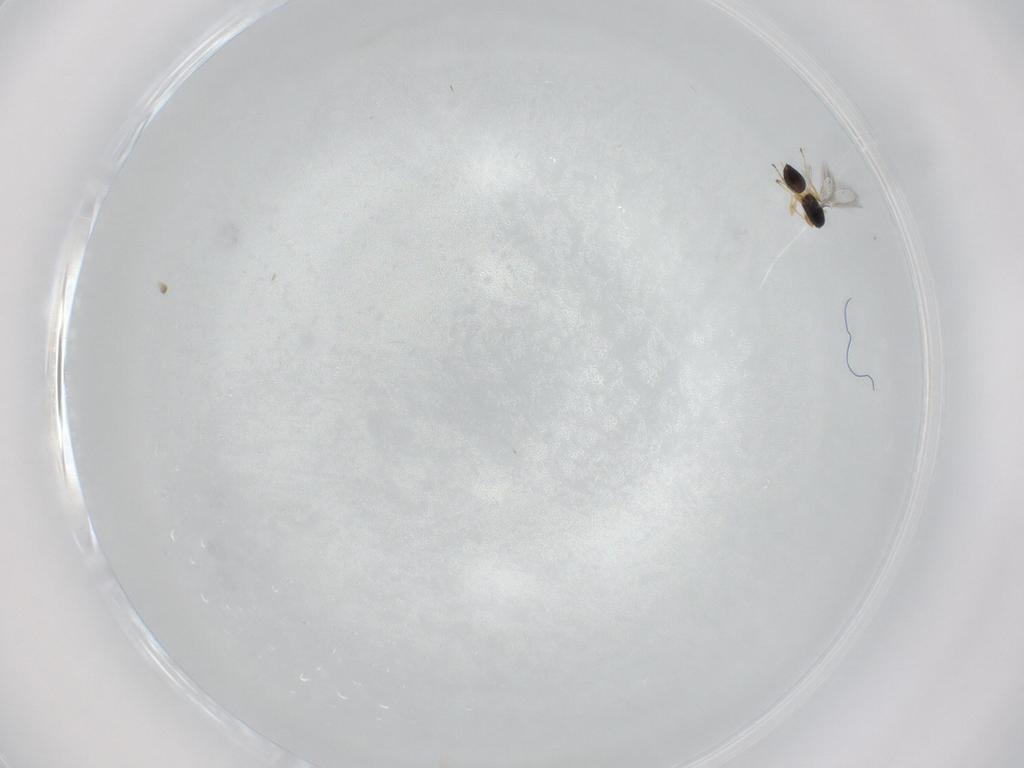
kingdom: Animalia
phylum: Arthropoda
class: Insecta
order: Hymenoptera
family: Mymaridae
